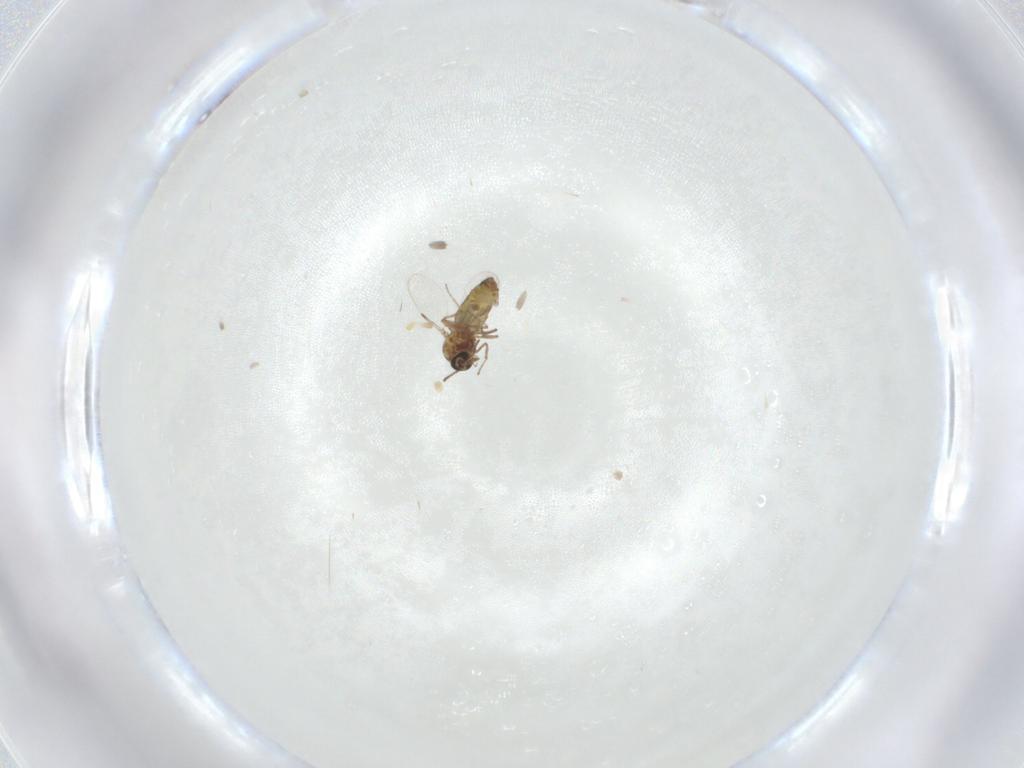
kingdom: Animalia
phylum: Arthropoda
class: Insecta
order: Diptera
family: Ceratopogonidae
